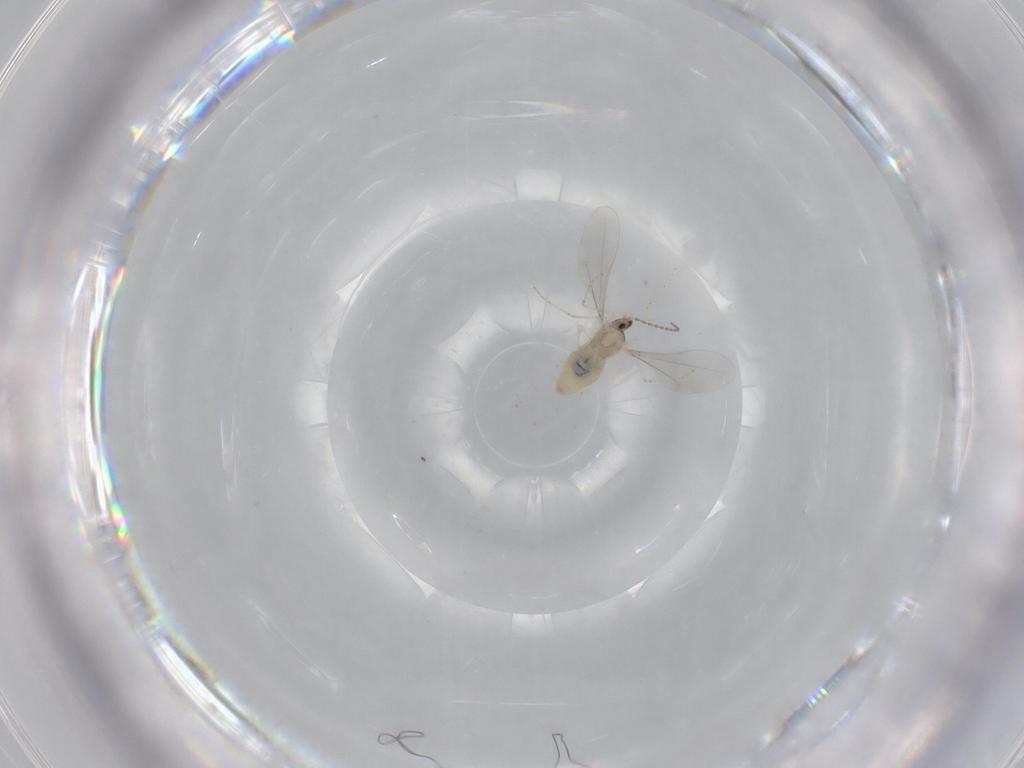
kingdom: Animalia
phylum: Arthropoda
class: Insecta
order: Diptera
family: Cecidomyiidae
